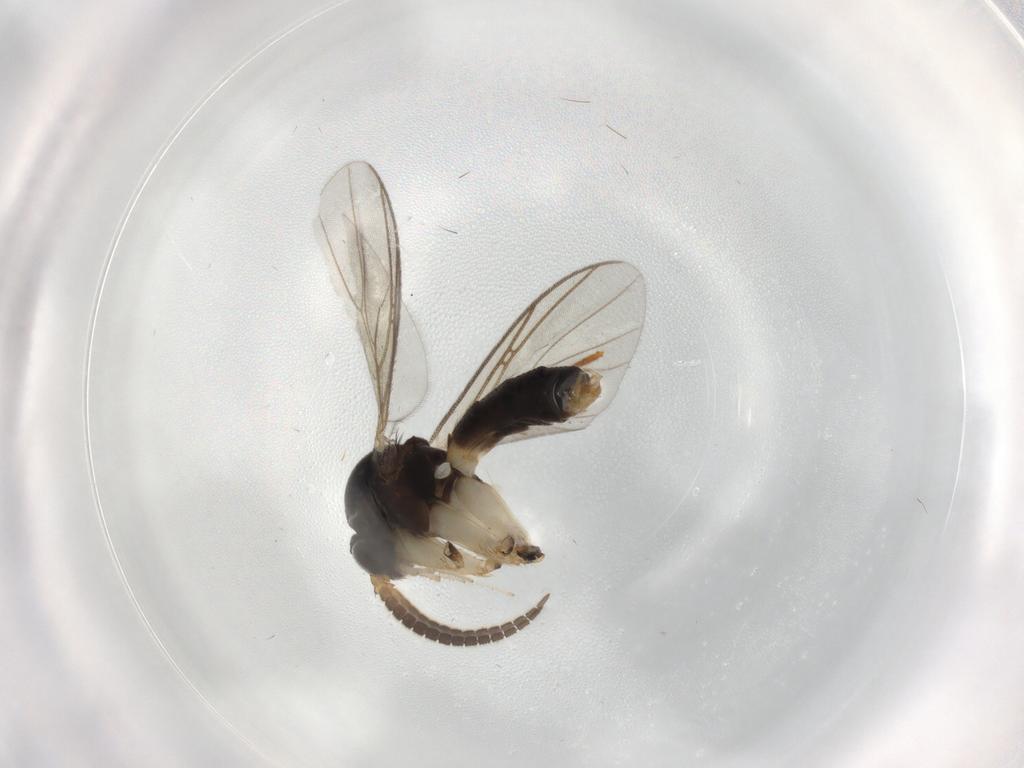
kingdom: Animalia
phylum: Arthropoda
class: Insecta
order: Diptera
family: Mycetophilidae
